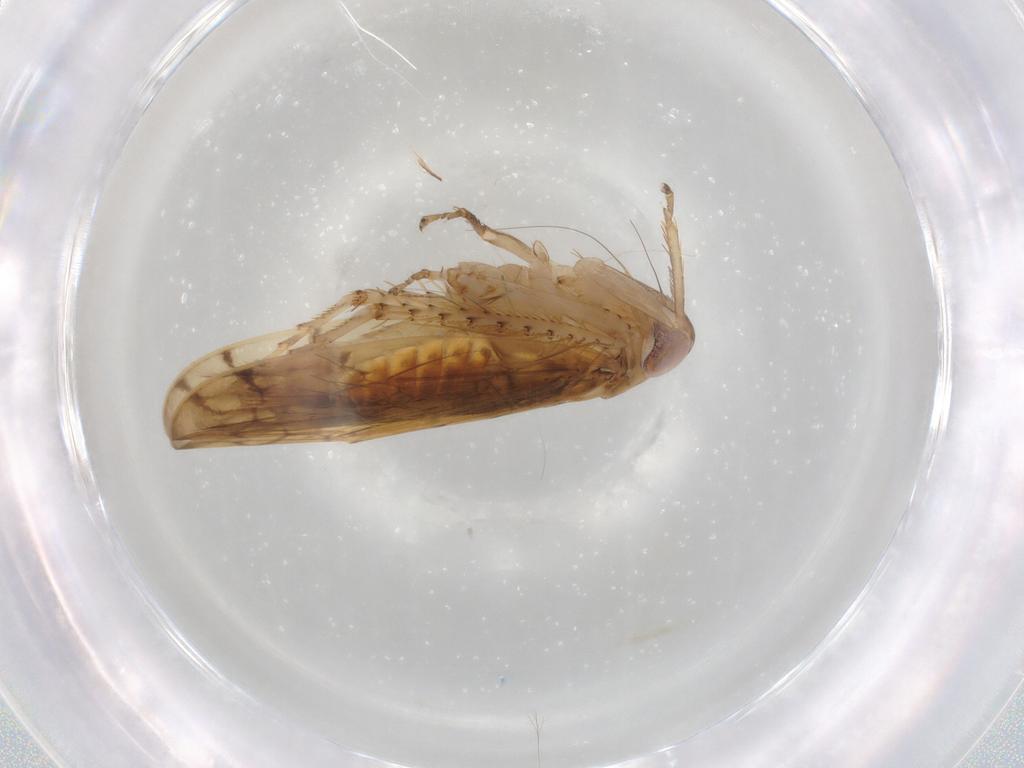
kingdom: Animalia
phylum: Arthropoda
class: Insecta
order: Hemiptera
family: Cicadellidae
